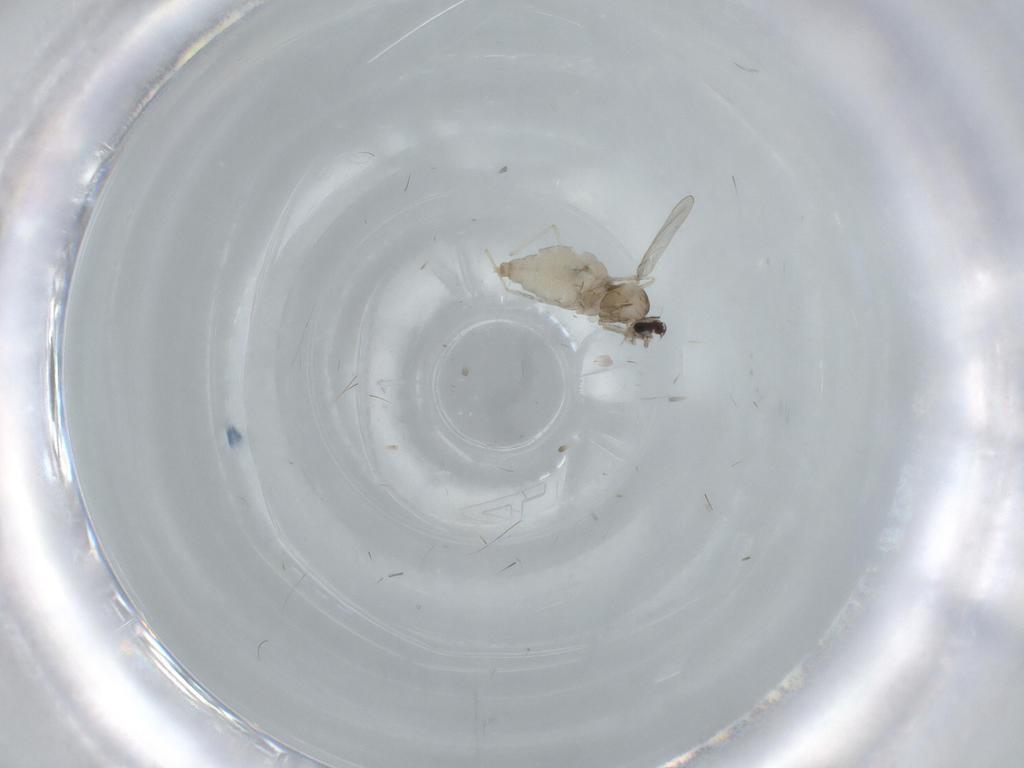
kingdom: Animalia
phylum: Arthropoda
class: Insecta
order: Diptera
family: Cecidomyiidae
